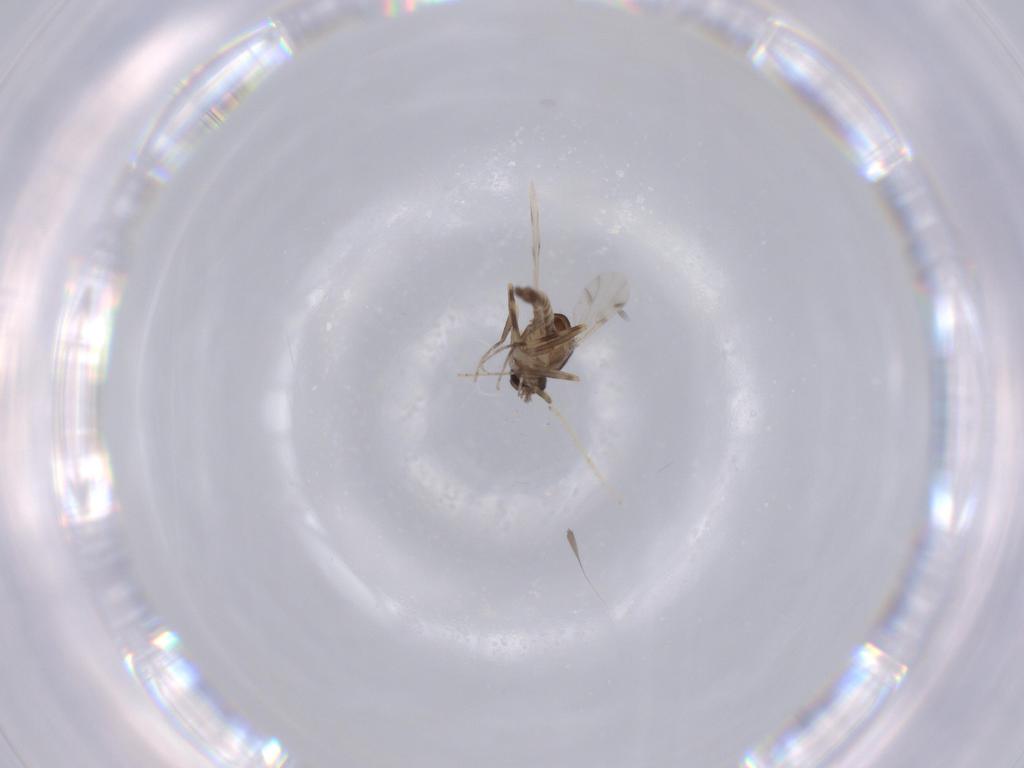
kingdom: Animalia
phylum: Arthropoda
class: Insecta
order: Diptera
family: Ceratopogonidae
